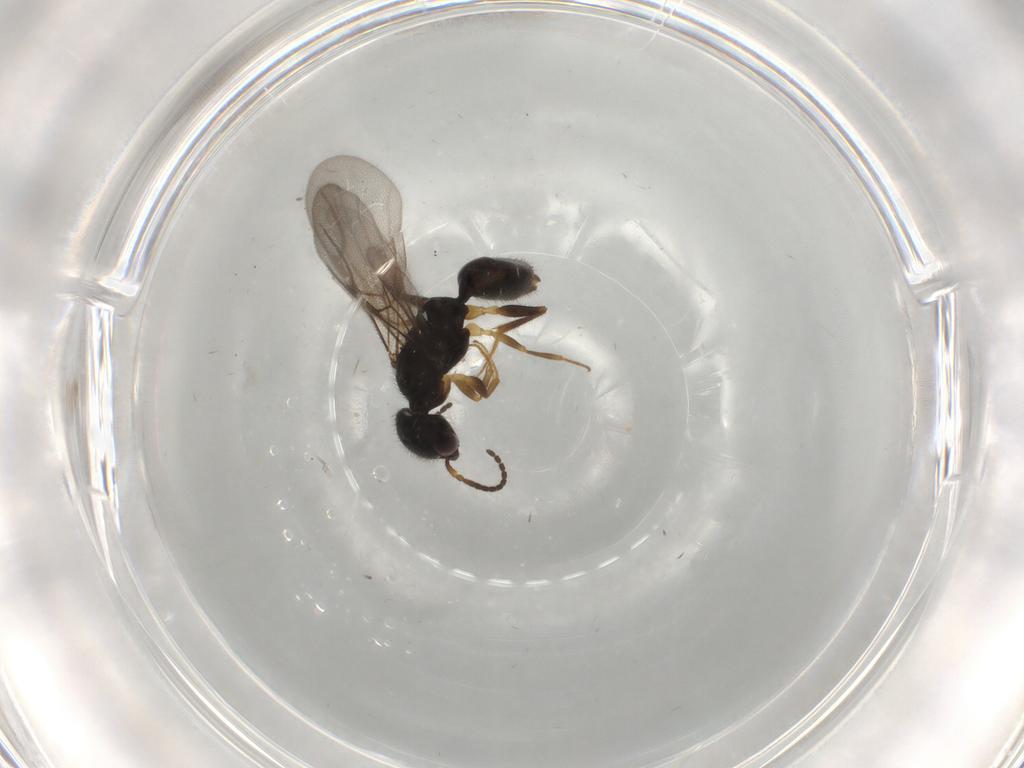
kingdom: Animalia
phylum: Arthropoda
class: Insecta
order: Hymenoptera
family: Bethylidae
